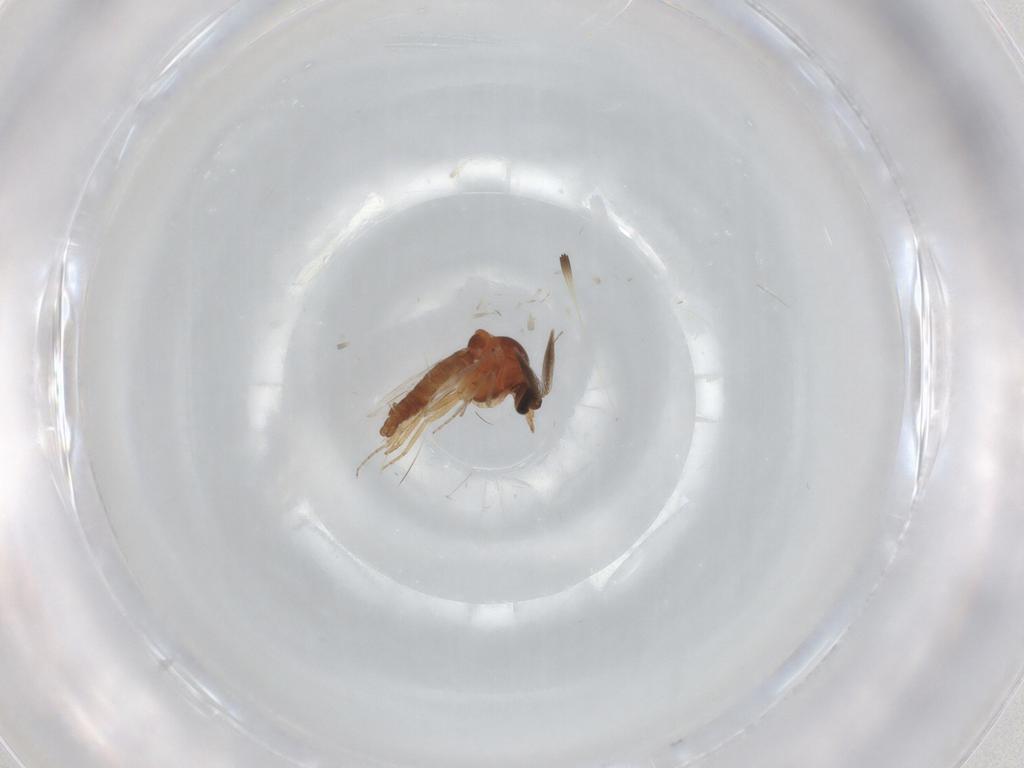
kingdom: Animalia
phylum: Arthropoda
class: Insecta
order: Diptera
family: Ceratopogonidae
